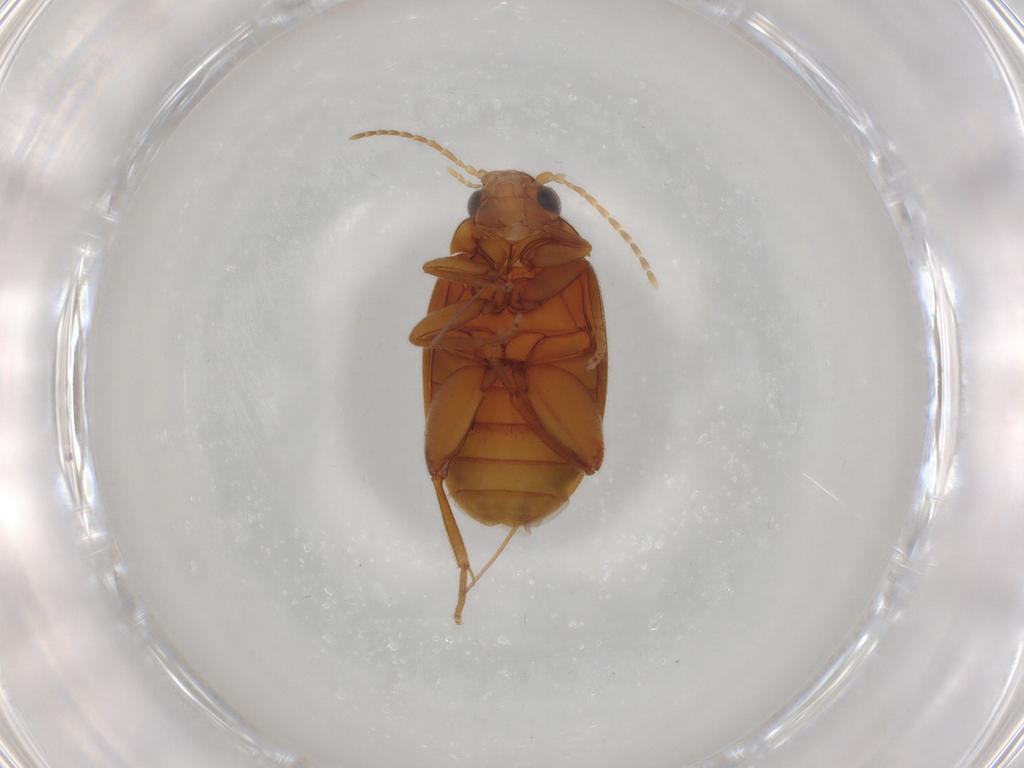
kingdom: Animalia
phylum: Arthropoda
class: Insecta
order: Coleoptera
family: Scirtidae
